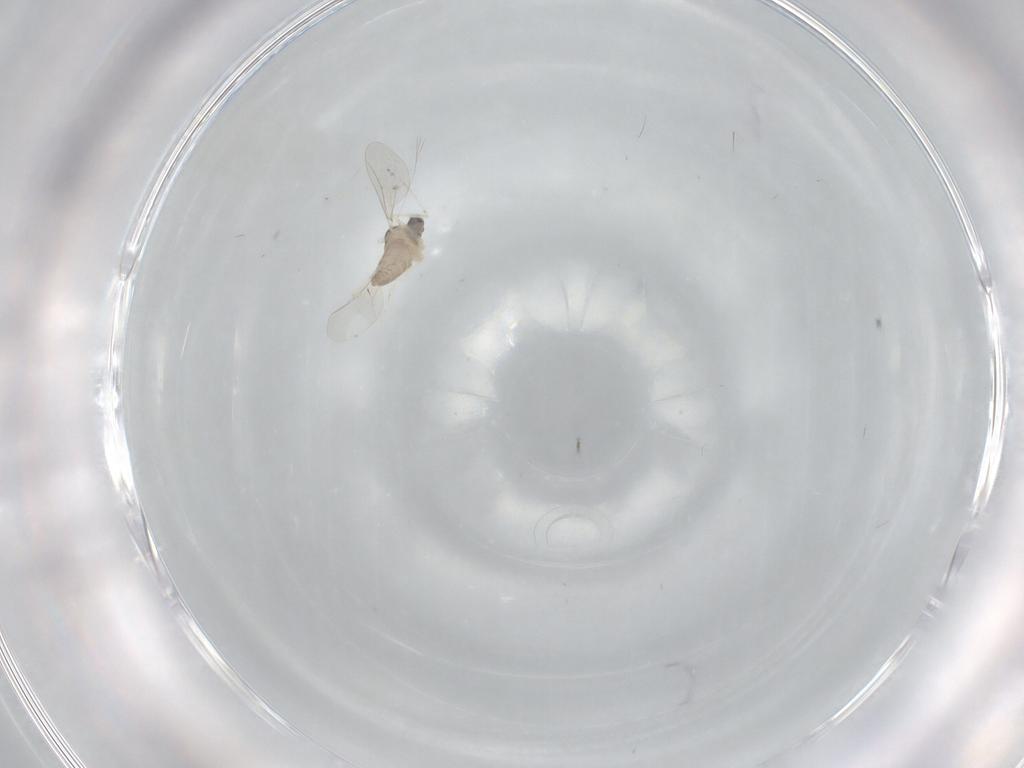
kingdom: Animalia
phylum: Arthropoda
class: Insecta
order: Diptera
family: Cecidomyiidae
